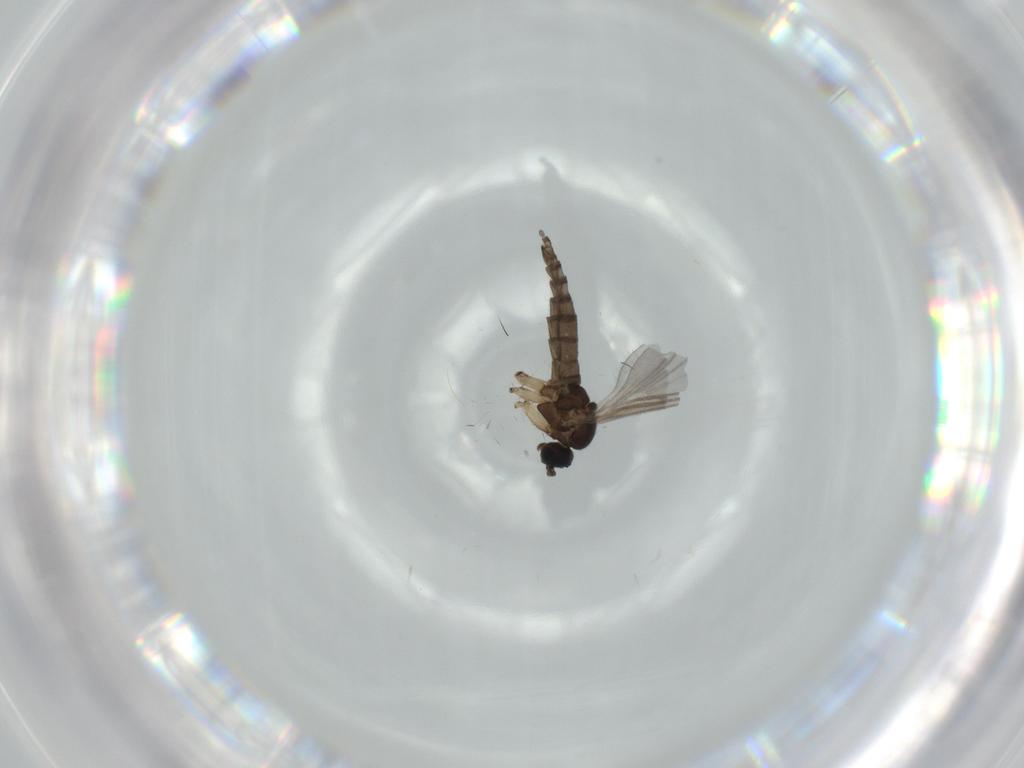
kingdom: Animalia
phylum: Arthropoda
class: Insecta
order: Diptera
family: Sciaridae
